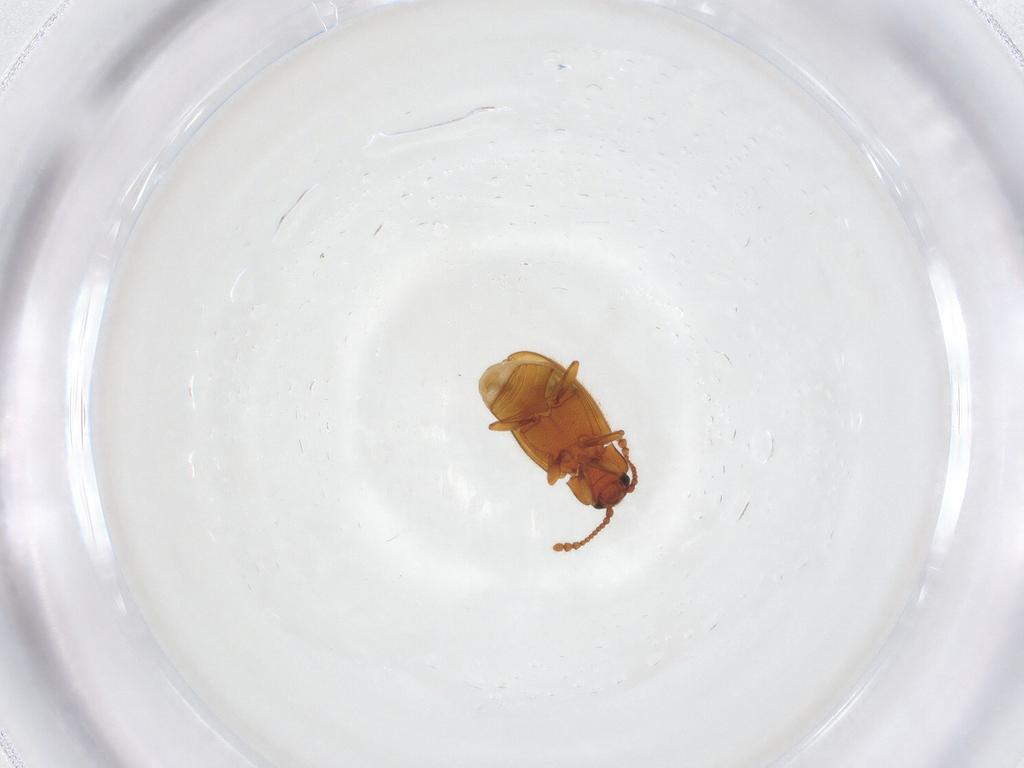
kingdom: Animalia
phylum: Arthropoda
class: Insecta
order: Coleoptera
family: Cryptophagidae
